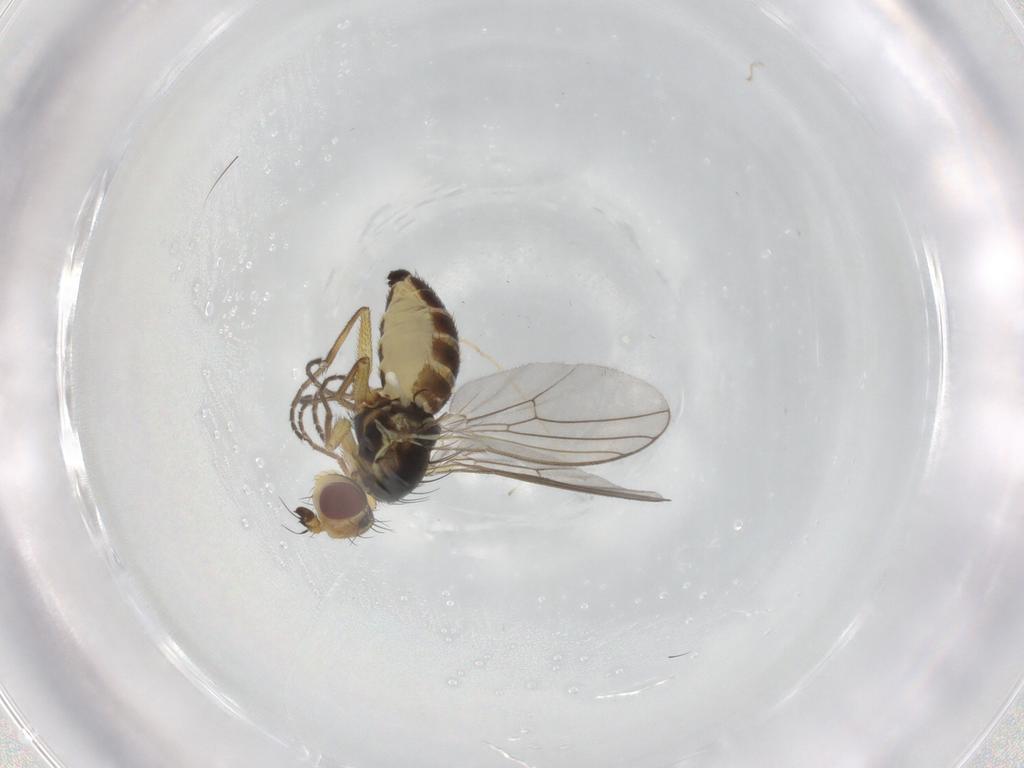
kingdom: Animalia
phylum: Arthropoda
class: Insecta
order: Diptera
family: Agromyzidae
